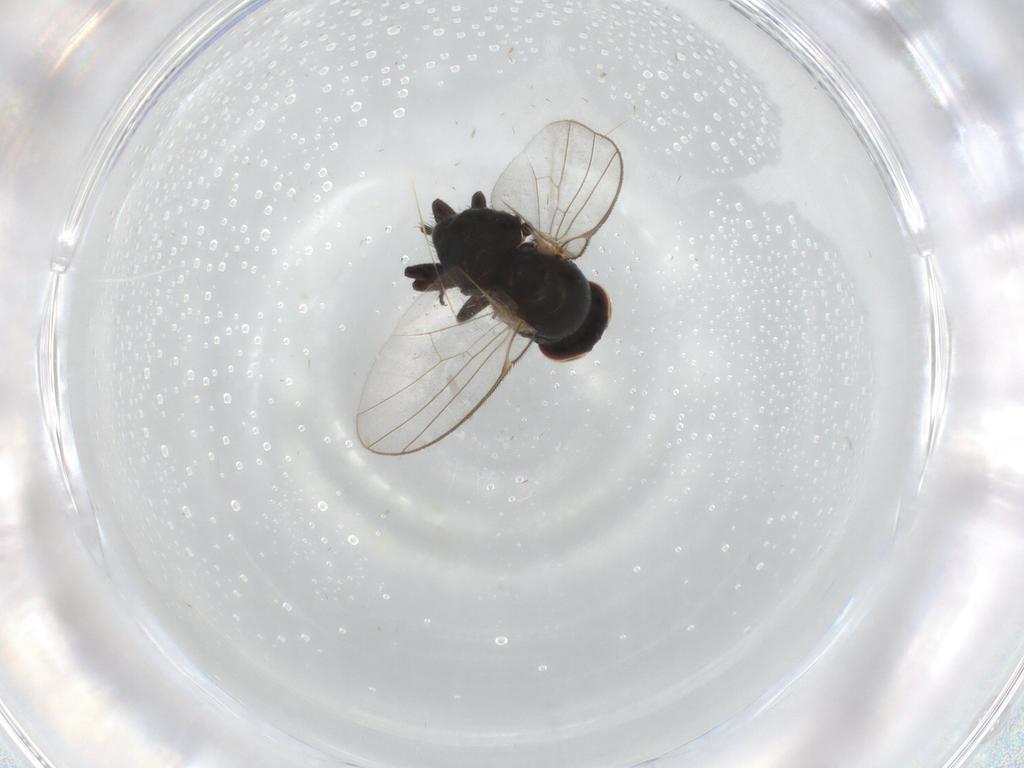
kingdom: Animalia
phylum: Arthropoda
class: Insecta
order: Diptera
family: Agromyzidae
